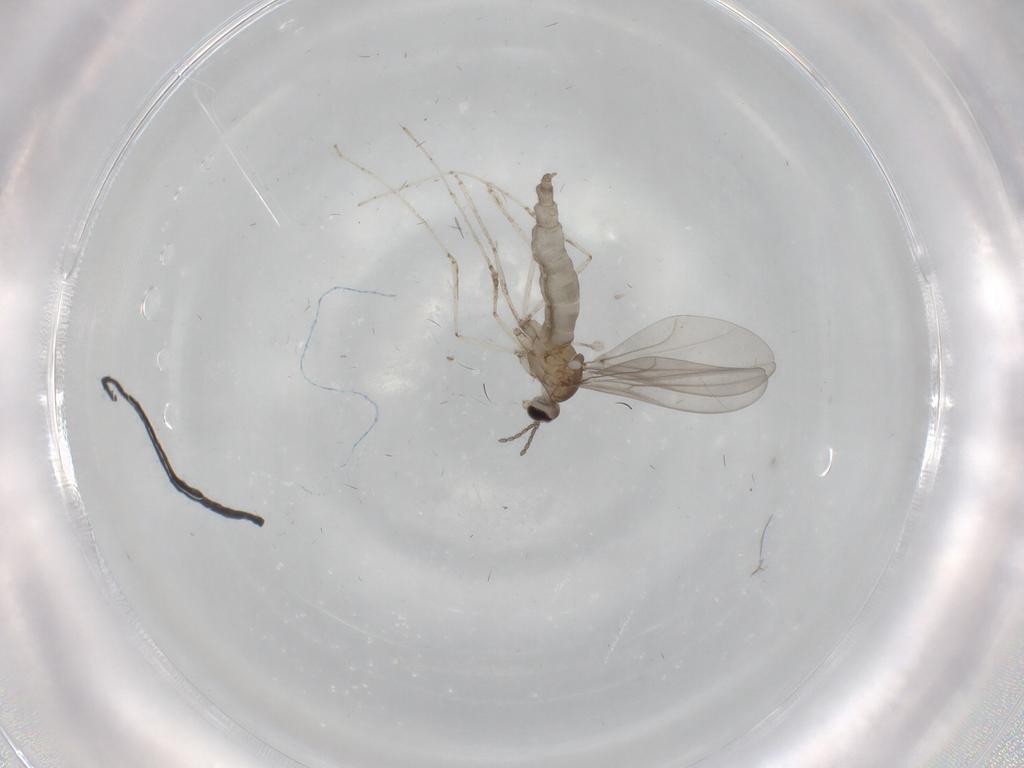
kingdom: Animalia
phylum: Arthropoda
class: Insecta
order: Diptera
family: Cecidomyiidae
